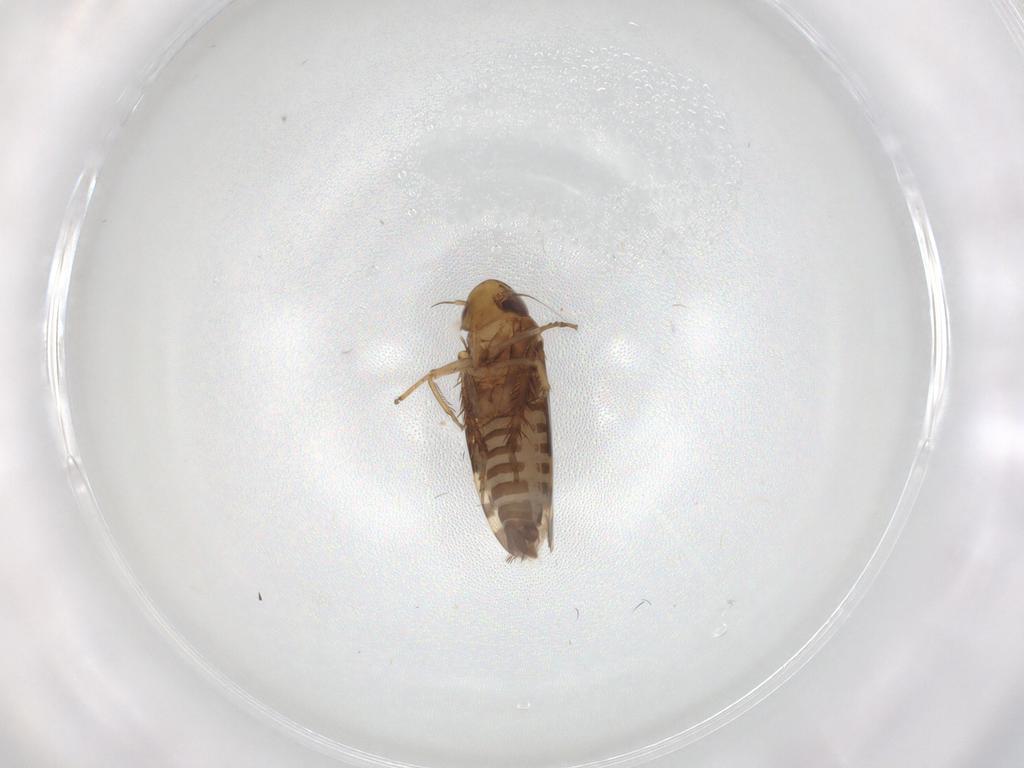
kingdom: Animalia
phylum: Arthropoda
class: Insecta
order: Hemiptera
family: Cicadellidae
